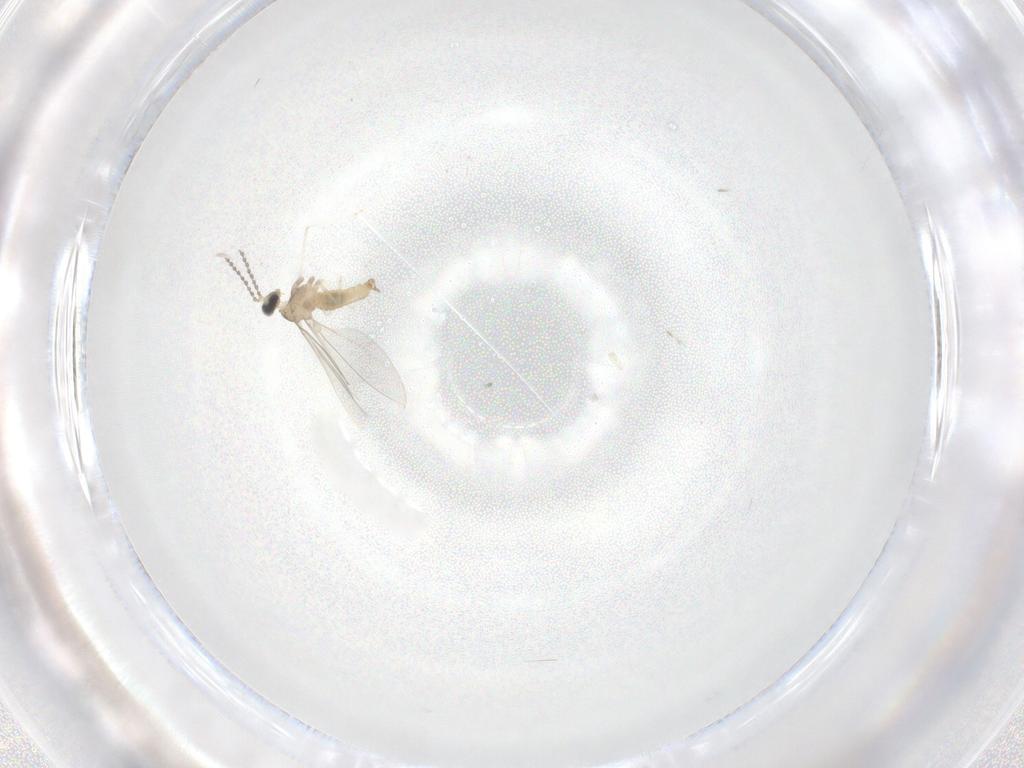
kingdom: Animalia
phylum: Arthropoda
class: Insecta
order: Diptera
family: Cecidomyiidae
